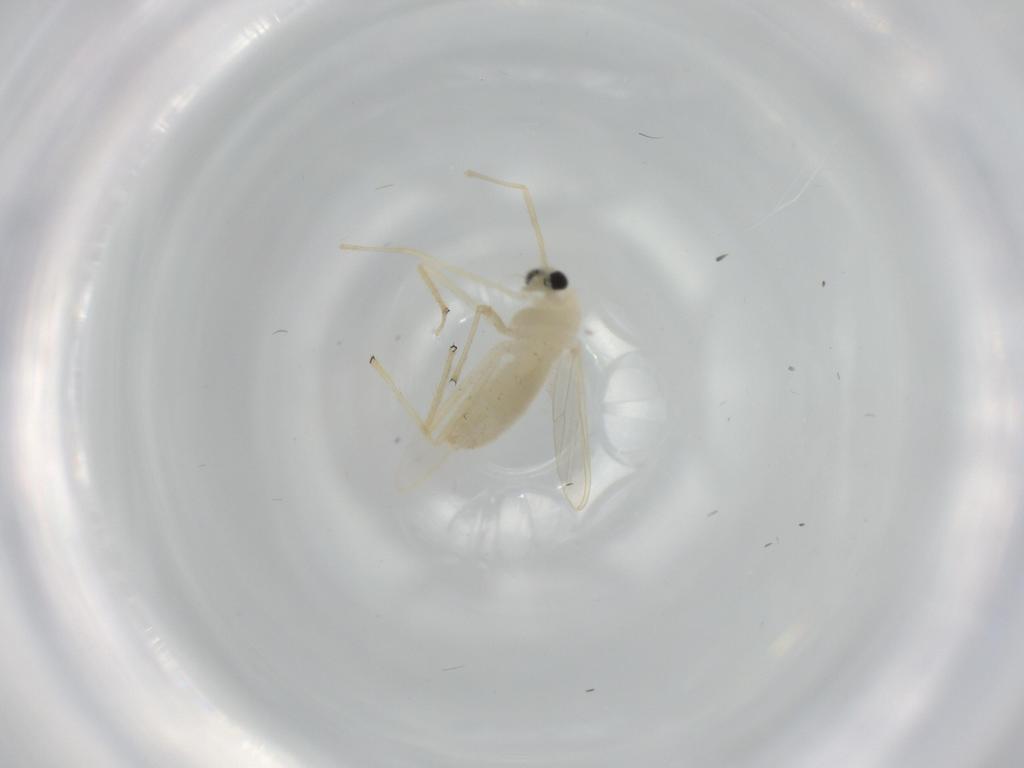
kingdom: Animalia
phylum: Arthropoda
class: Insecta
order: Diptera
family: Chironomidae
